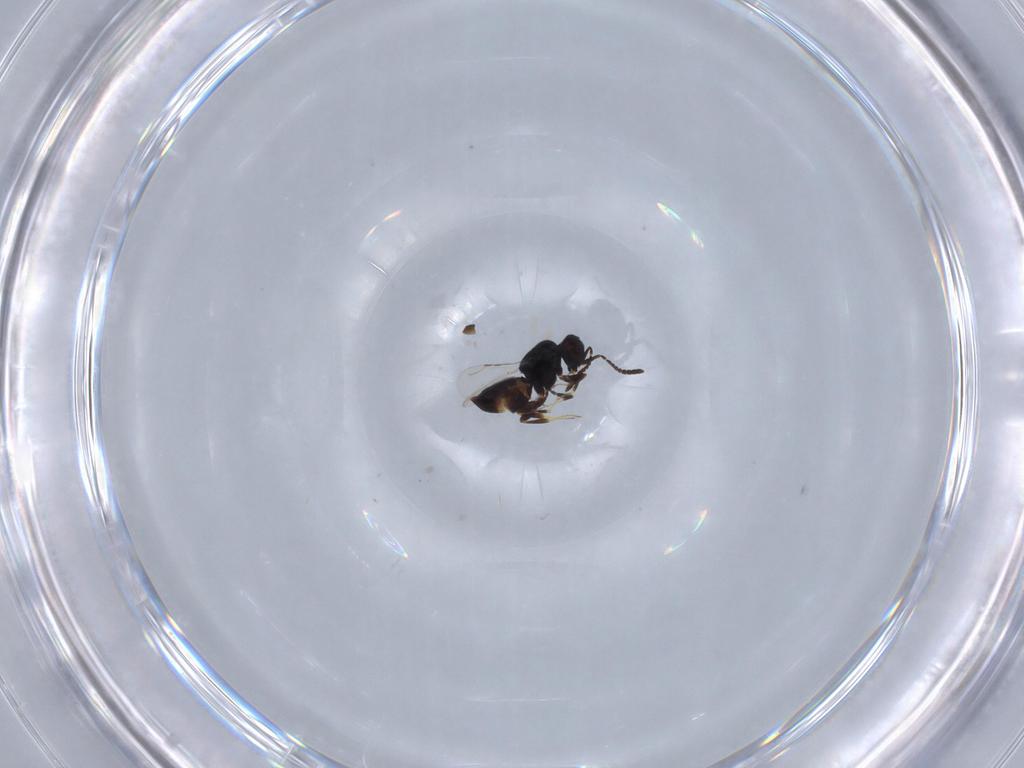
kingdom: Animalia
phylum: Arthropoda
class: Insecta
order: Hymenoptera
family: Ceraphronidae
